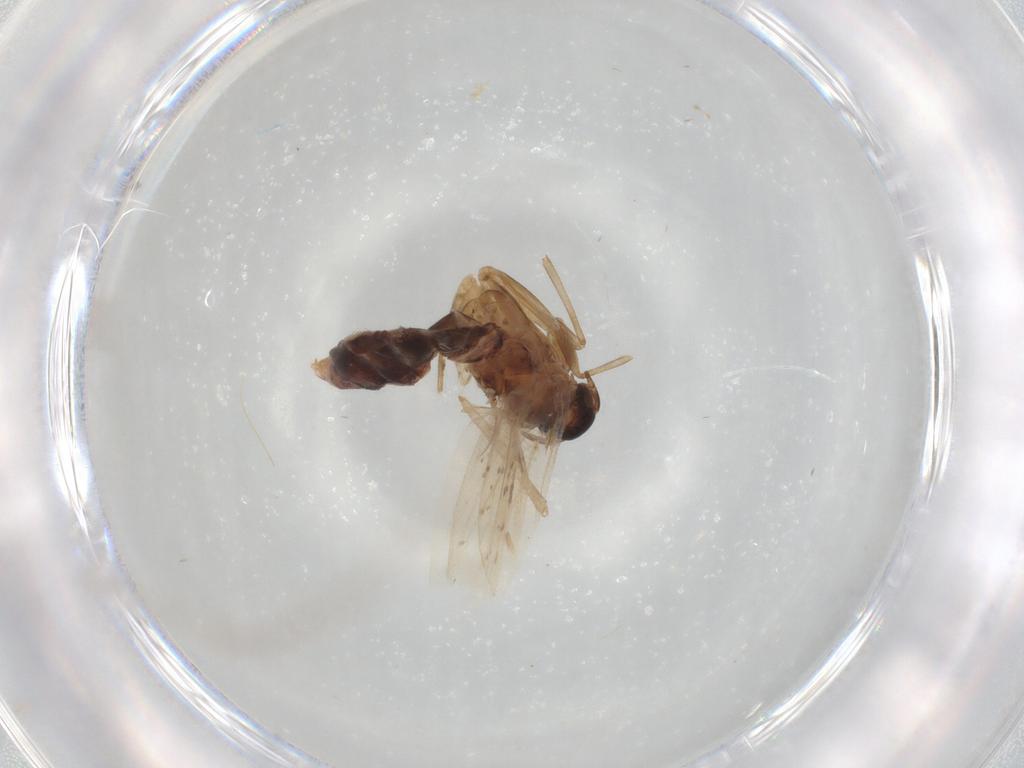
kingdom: Animalia
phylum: Arthropoda
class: Insecta
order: Lepidoptera
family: Gelechiidae
